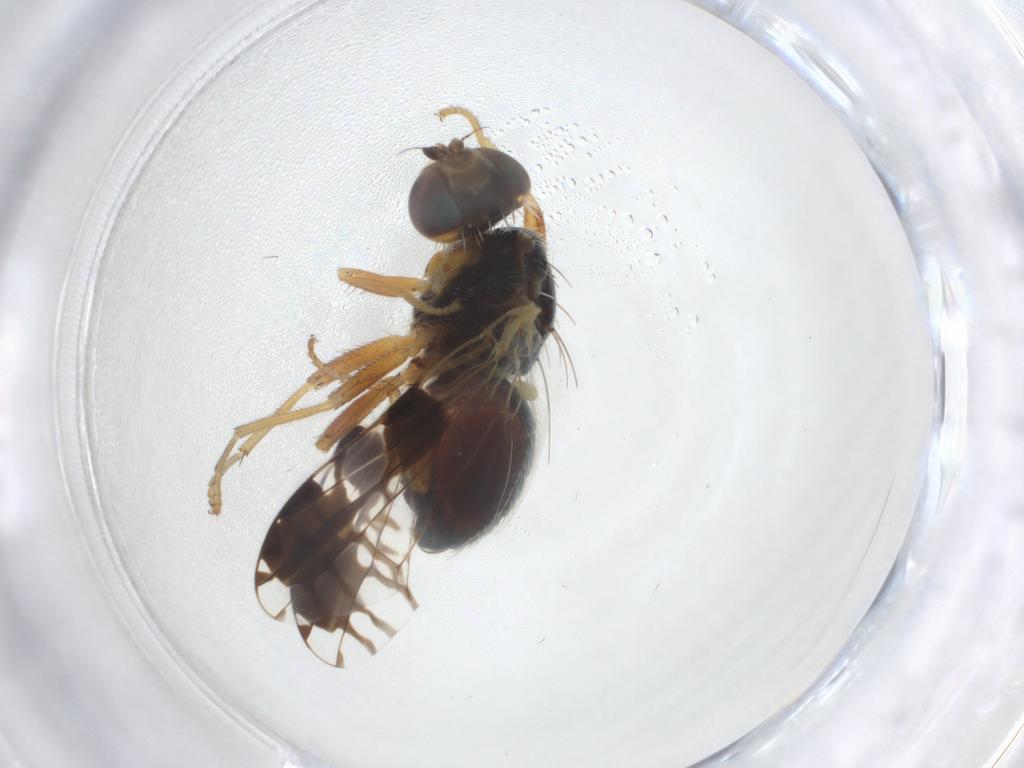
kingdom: Animalia
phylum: Arthropoda
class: Insecta
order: Diptera
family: Tephritidae
